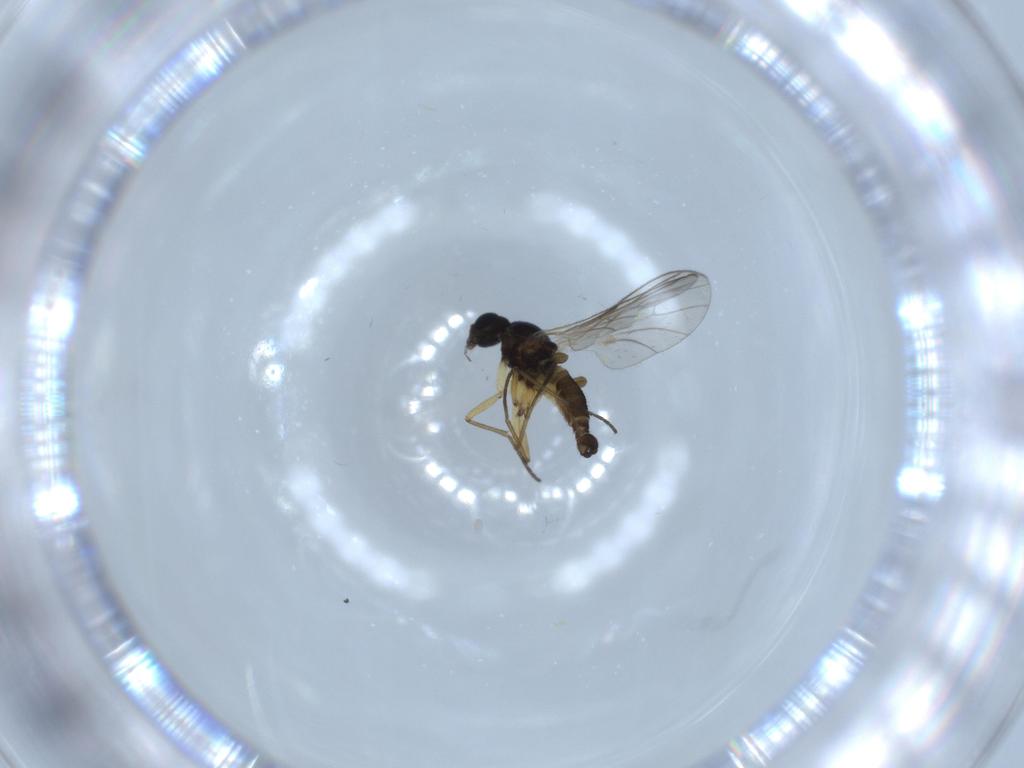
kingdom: Animalia
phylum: Arthropoda
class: Insecta
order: Diptera
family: Sciaridae
